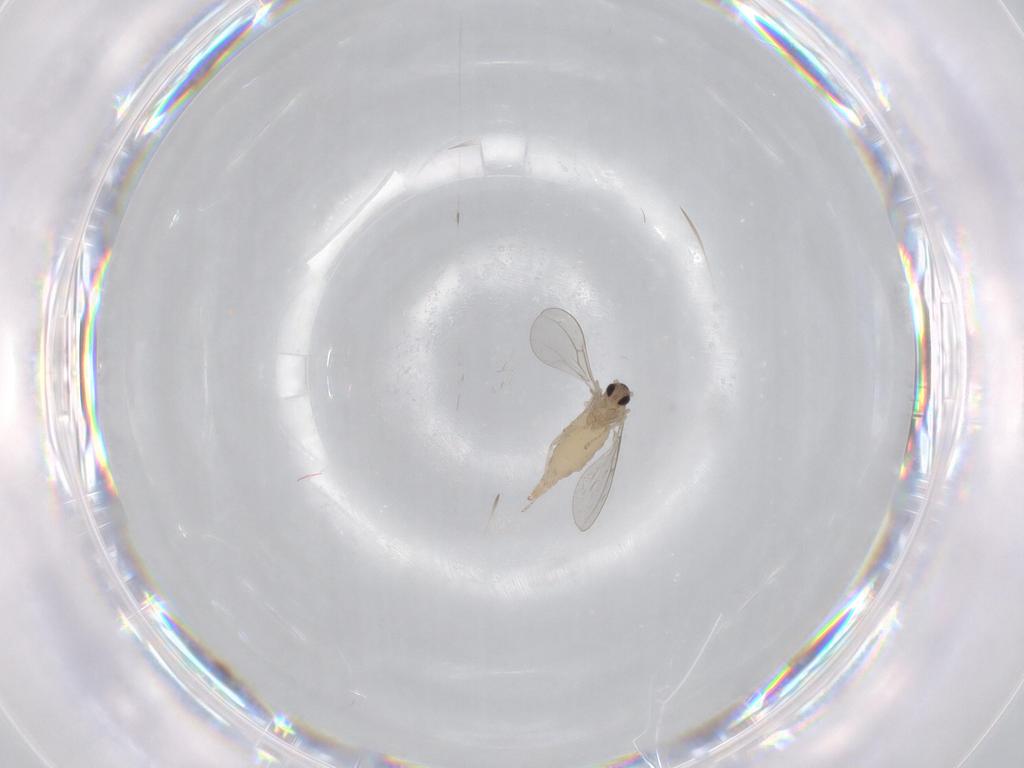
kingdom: Animalia
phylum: Arthropoda
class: Insecta
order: Diptera
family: Cecidomyiidae
